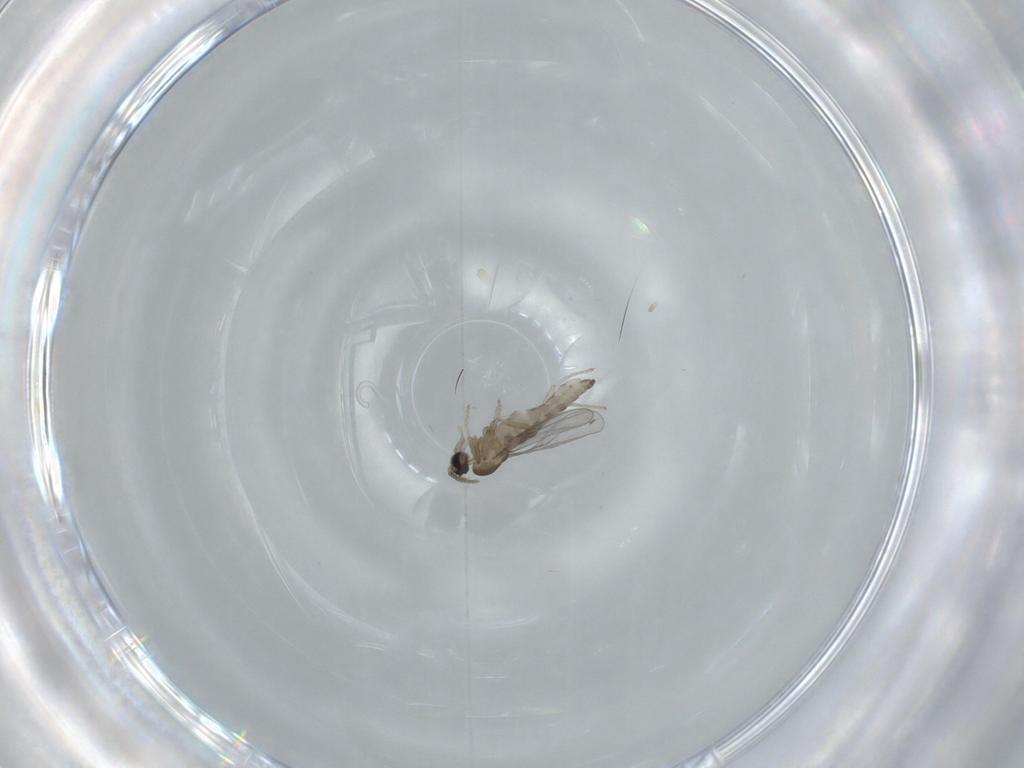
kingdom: Animalia
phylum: Arthropoda
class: Insecta
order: Diptera
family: Cecidomyiidae
